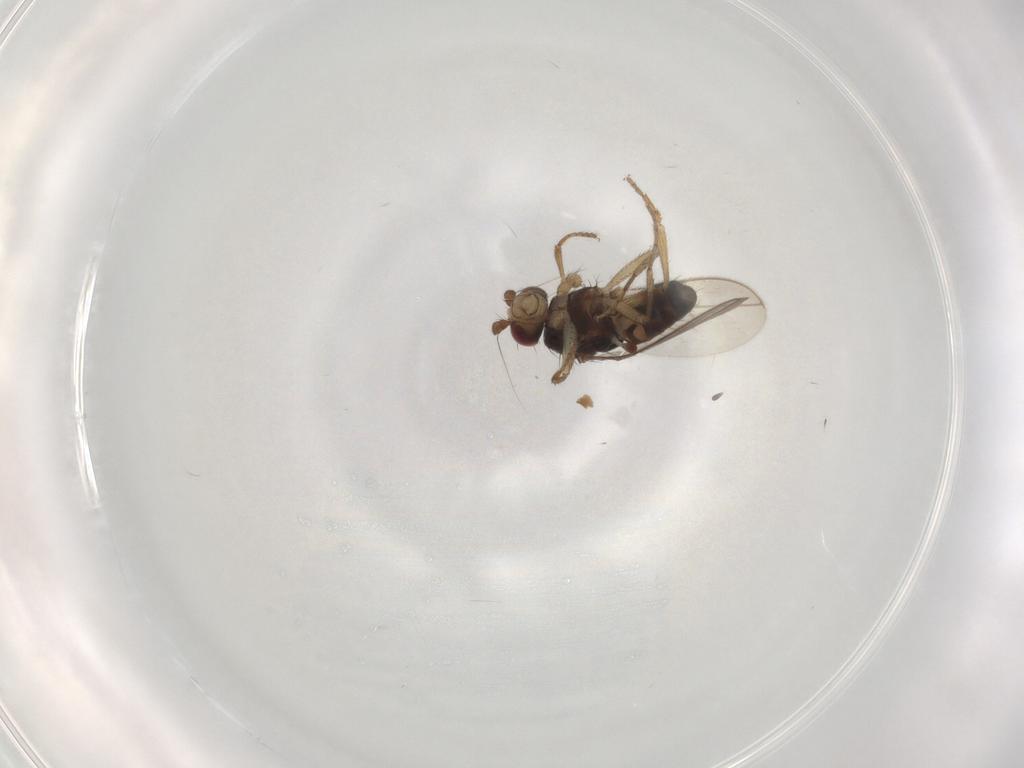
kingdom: Animalia
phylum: Arthropoda
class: Insecta
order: Diptera
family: Sphaeroceridae
